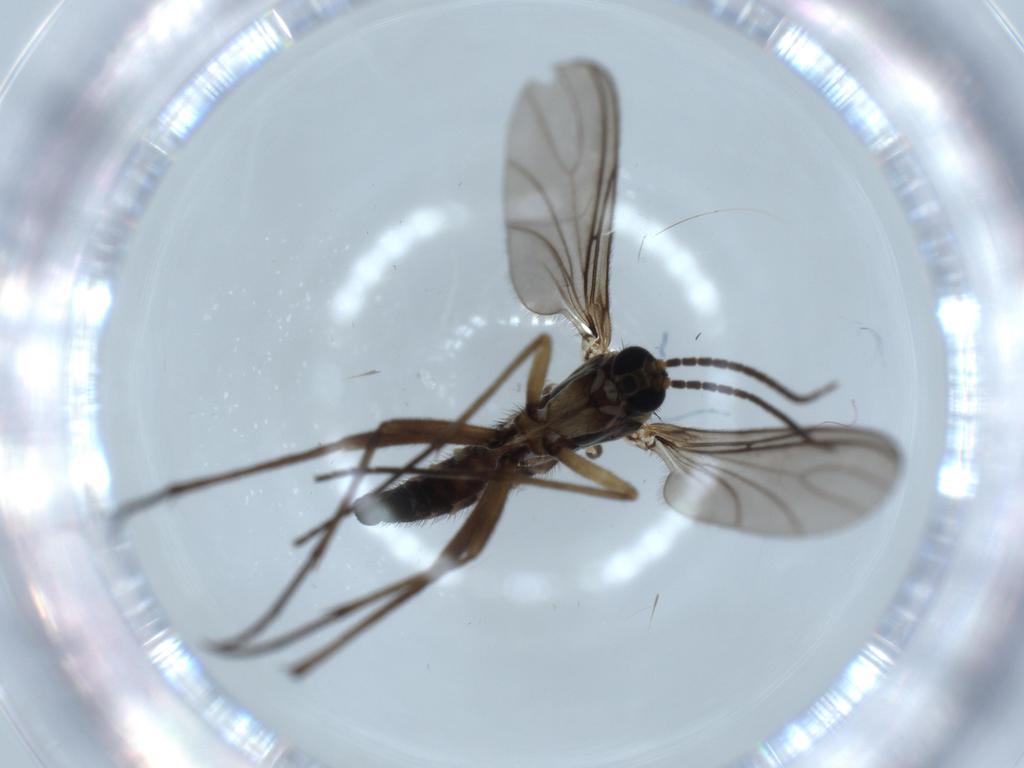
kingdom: Animalia
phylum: Arthropoda
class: Insecta
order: Diptera
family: Sciaridae
